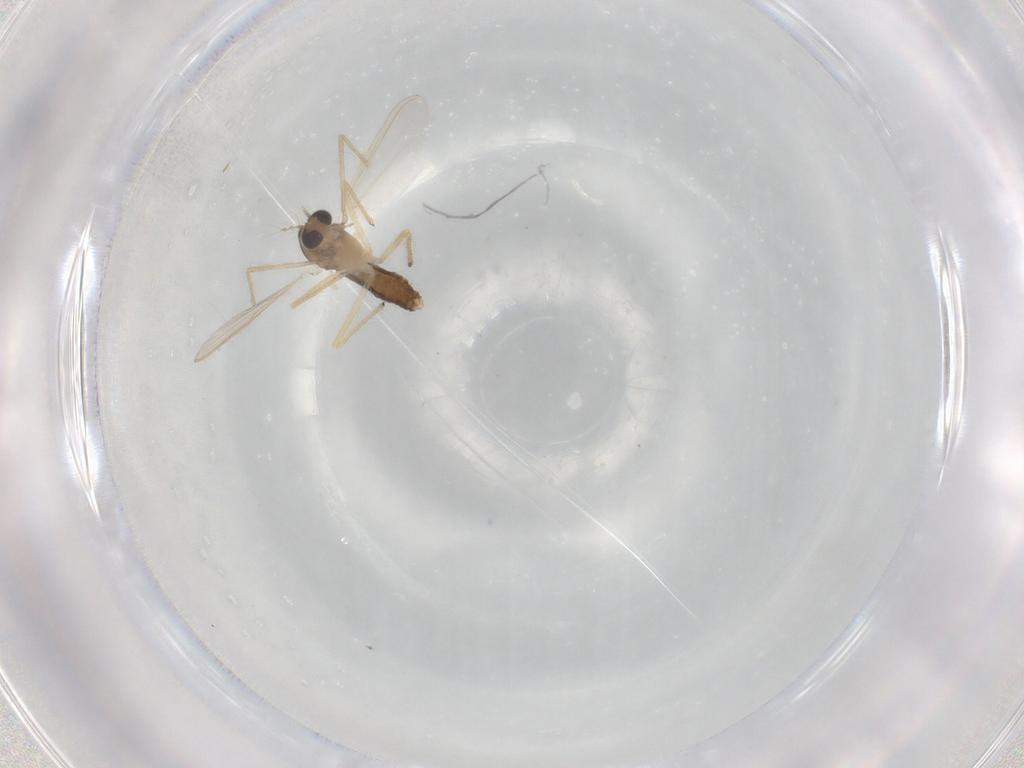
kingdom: Animalia
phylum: Arthropoda
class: Insecta
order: Diptera
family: Chironomidae
